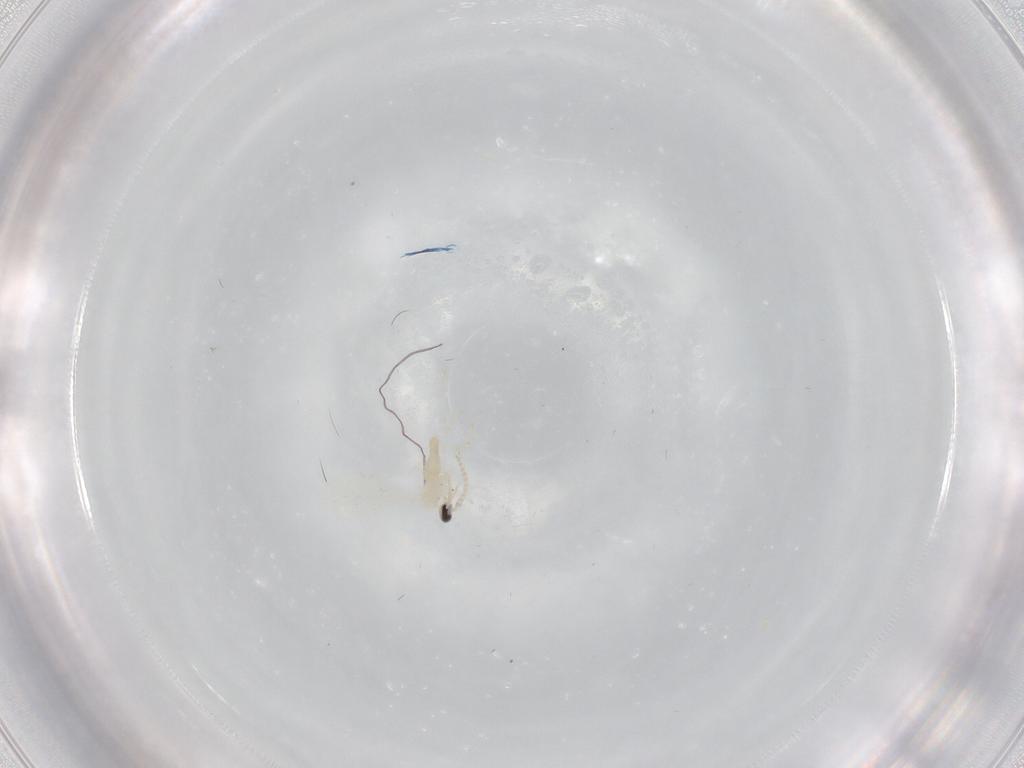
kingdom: Animalia
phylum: Arthropoda
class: Insecta
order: Diptera
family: Cecidomyiidae
